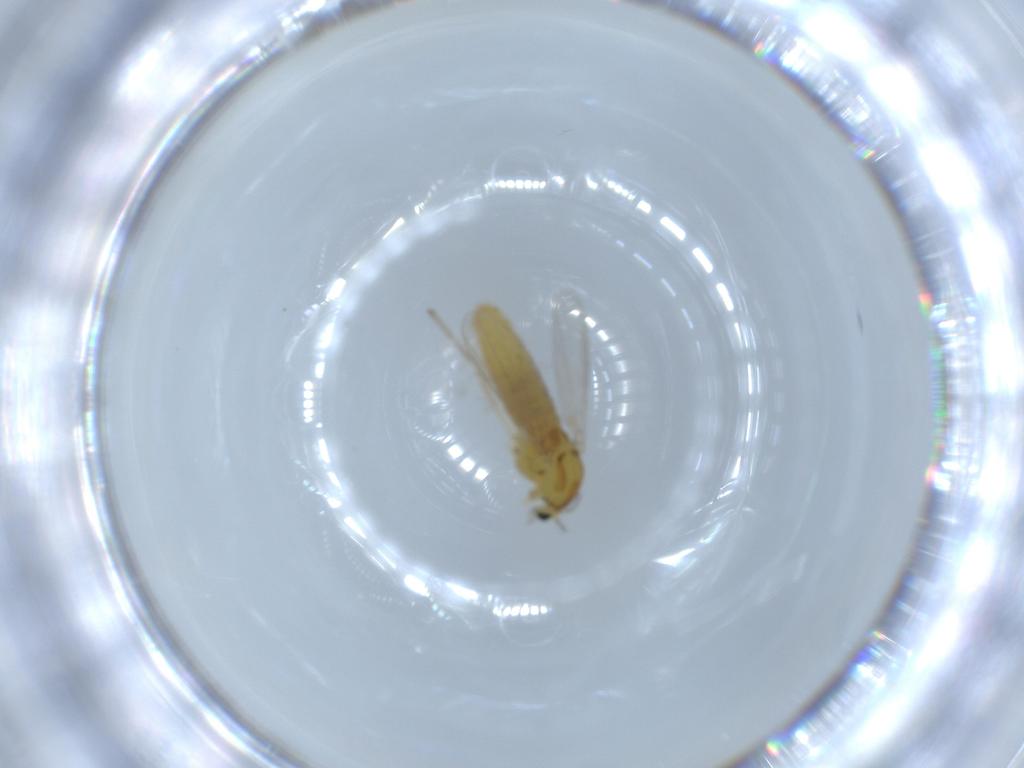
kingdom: Animalia
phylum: Arthropoda
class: Insecta
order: Diptera
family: Chironomidae
